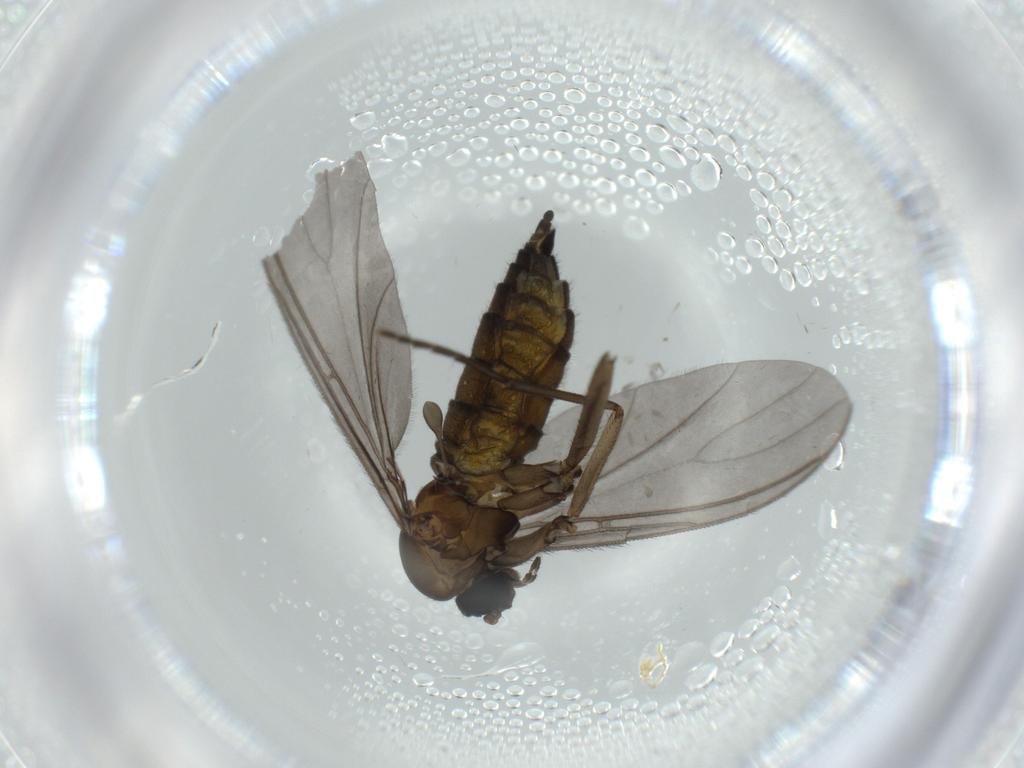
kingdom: Animalia
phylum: Arthropoda
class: Insecta
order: Diptera
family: Sciaridae
